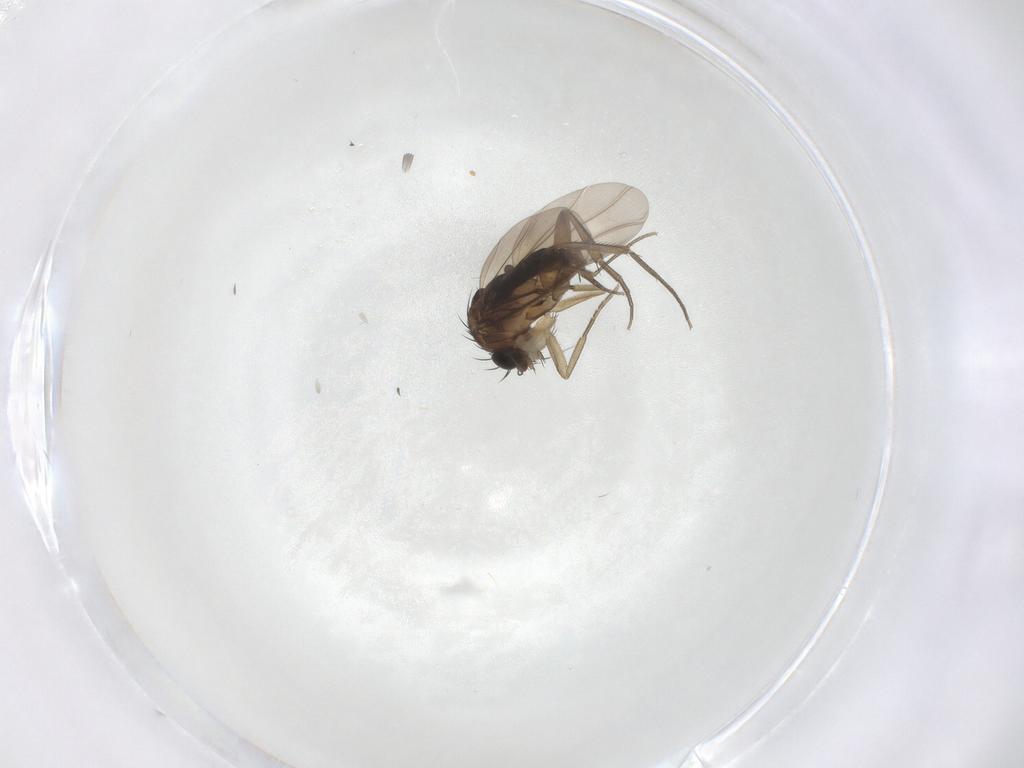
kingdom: Animalia
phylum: Arthropoda
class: Insecta
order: Diptera
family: Phoridae
